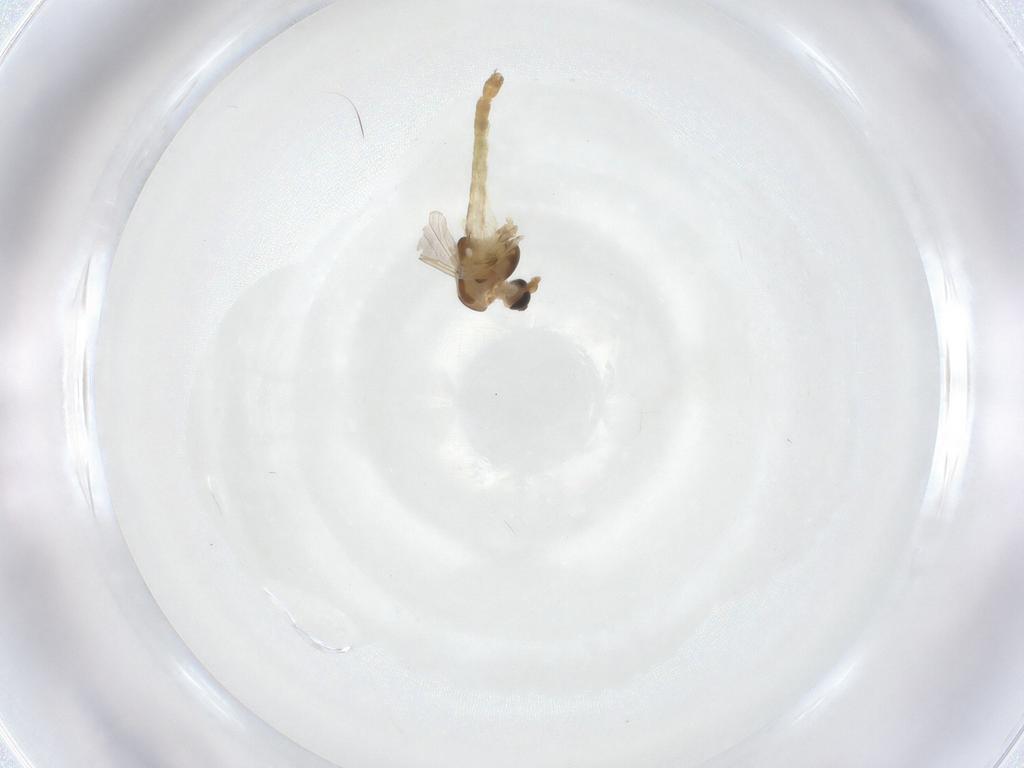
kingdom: Animalia
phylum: Arthropoda
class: Insecta
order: Diptera
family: Chironomidae
